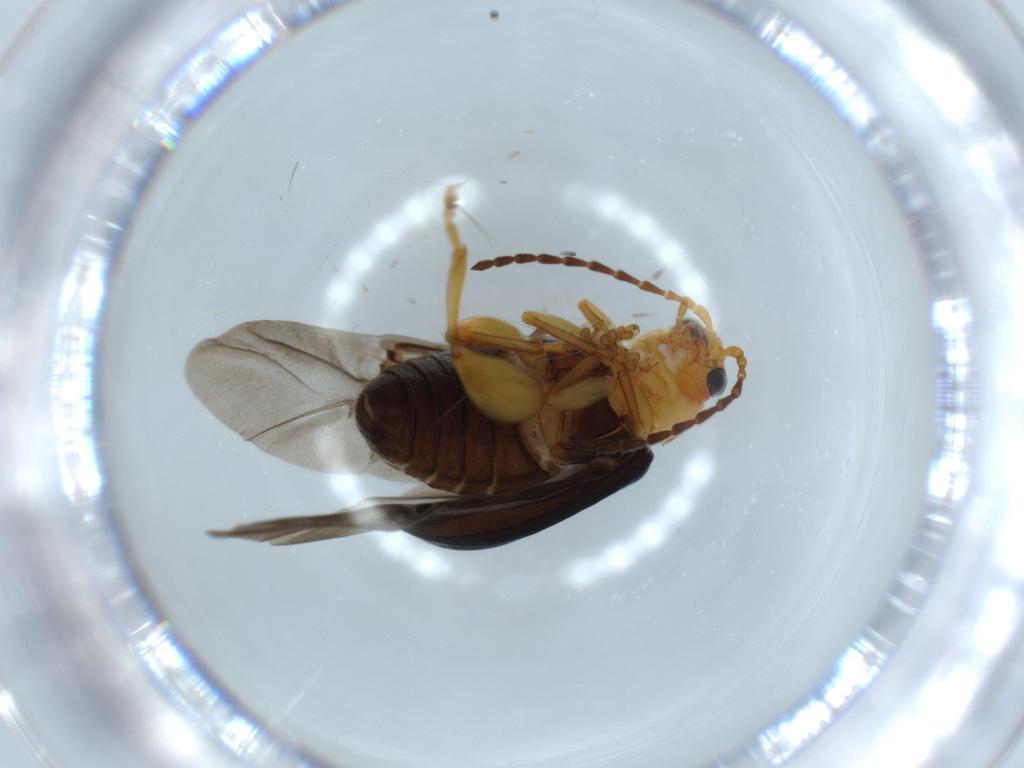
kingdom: Animalia
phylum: Arthropoda
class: Insecta
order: Coleoptera
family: Chrysomelidae
